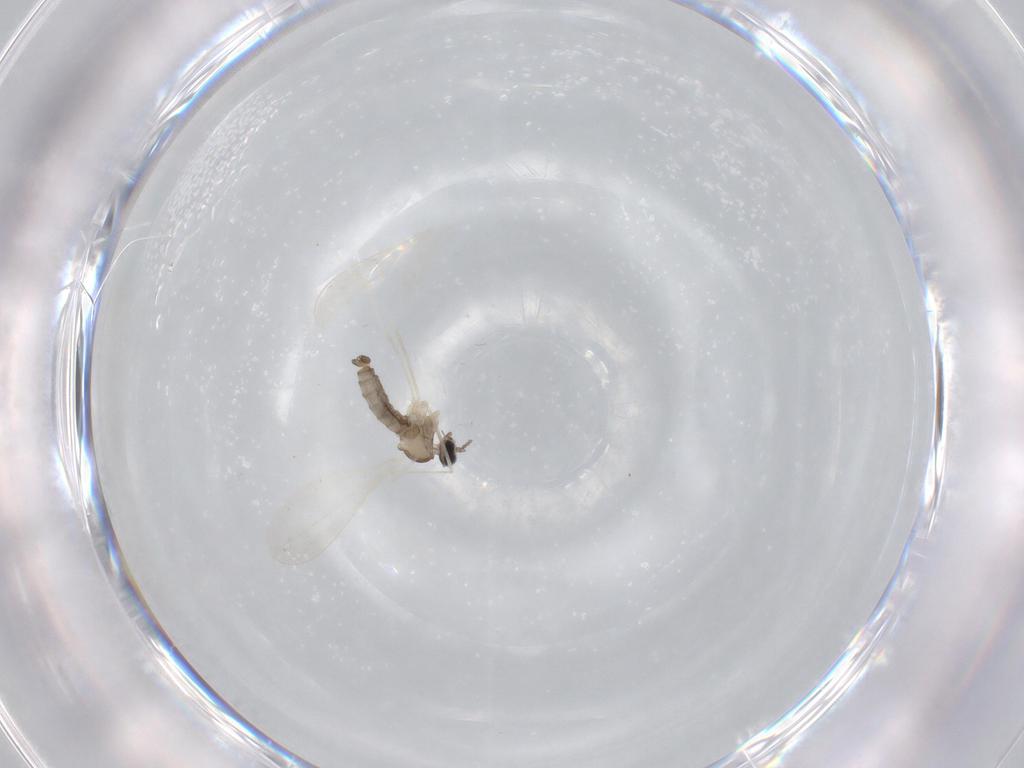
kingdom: Animalia
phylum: Arthropoda
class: Insecta
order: Diptera
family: Cecidomyiidae
